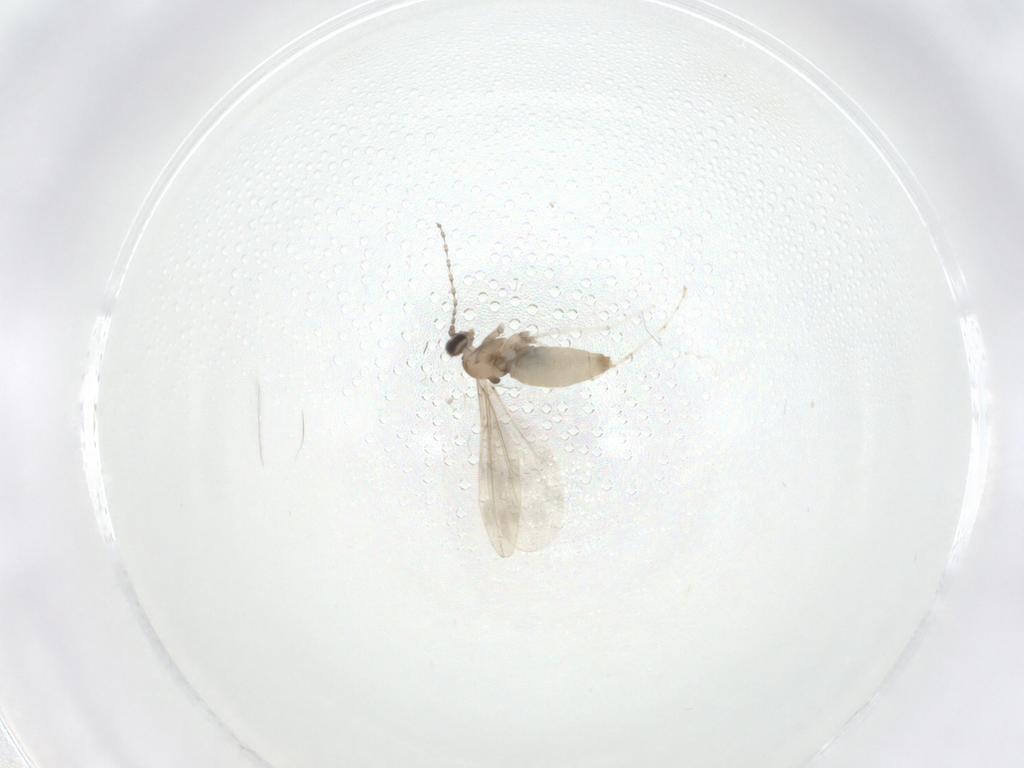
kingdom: Animalia
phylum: Arthropoda
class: Insecta
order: Diptera
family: Cecidomyiidae
